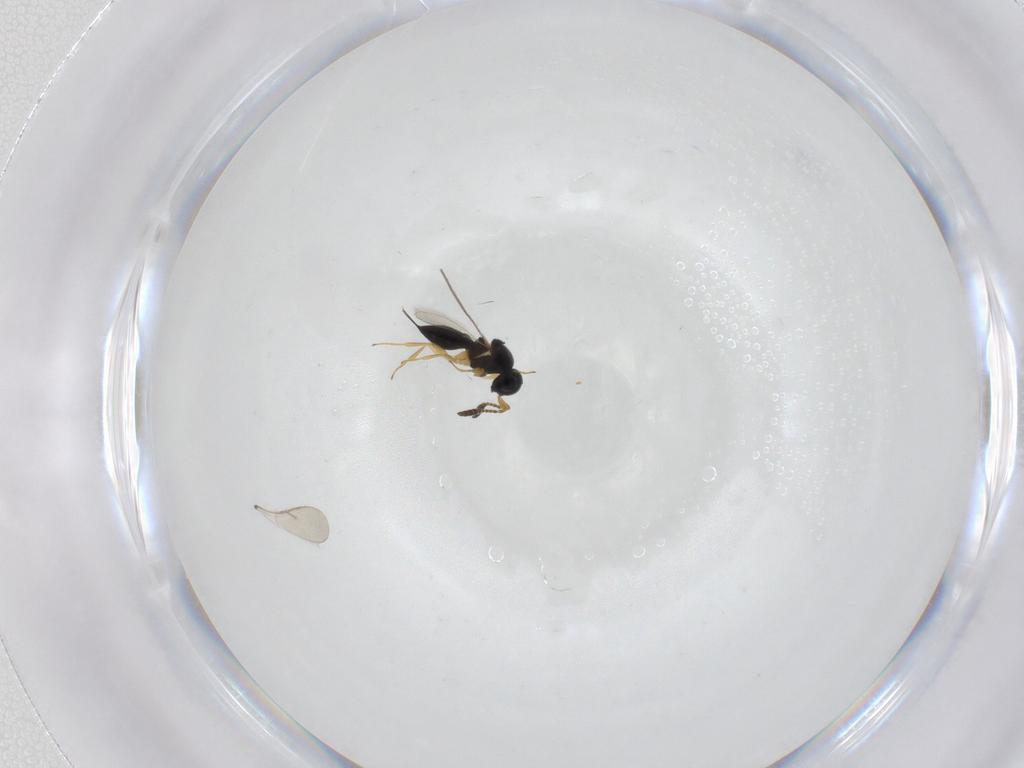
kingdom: Animalia
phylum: Arthropoda
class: Insecta
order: Hymenoptera
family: Scelionidae
